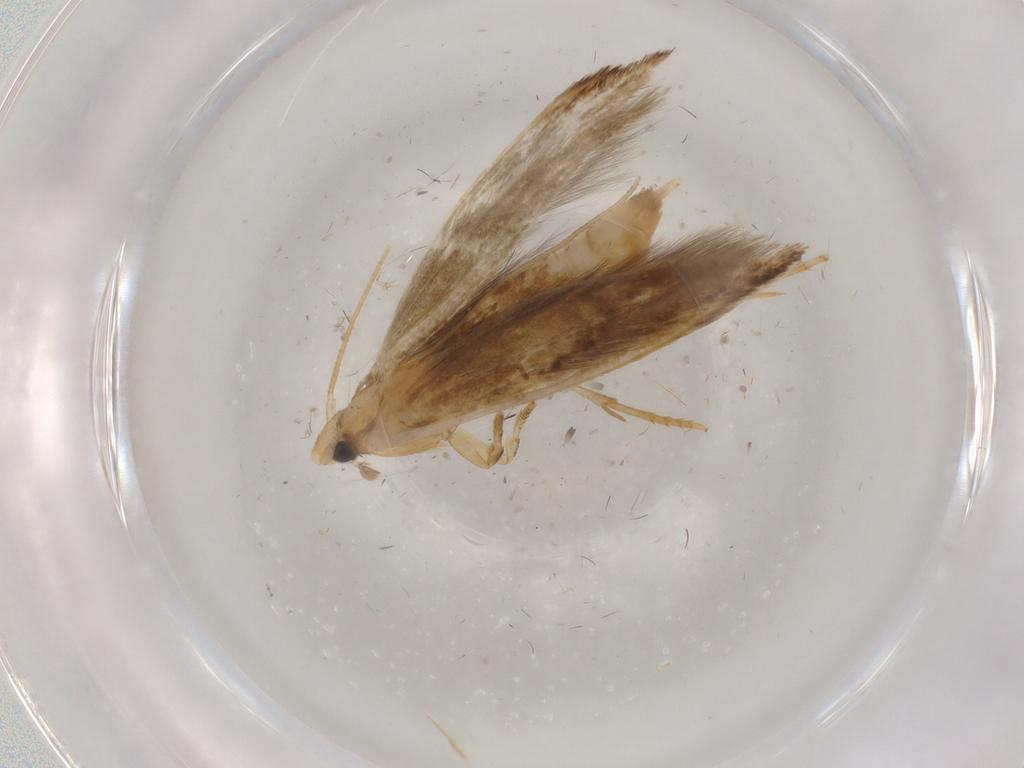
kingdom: Animalia
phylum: Arthropoda
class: Insecta
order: Lepidoptera
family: Tineidae
